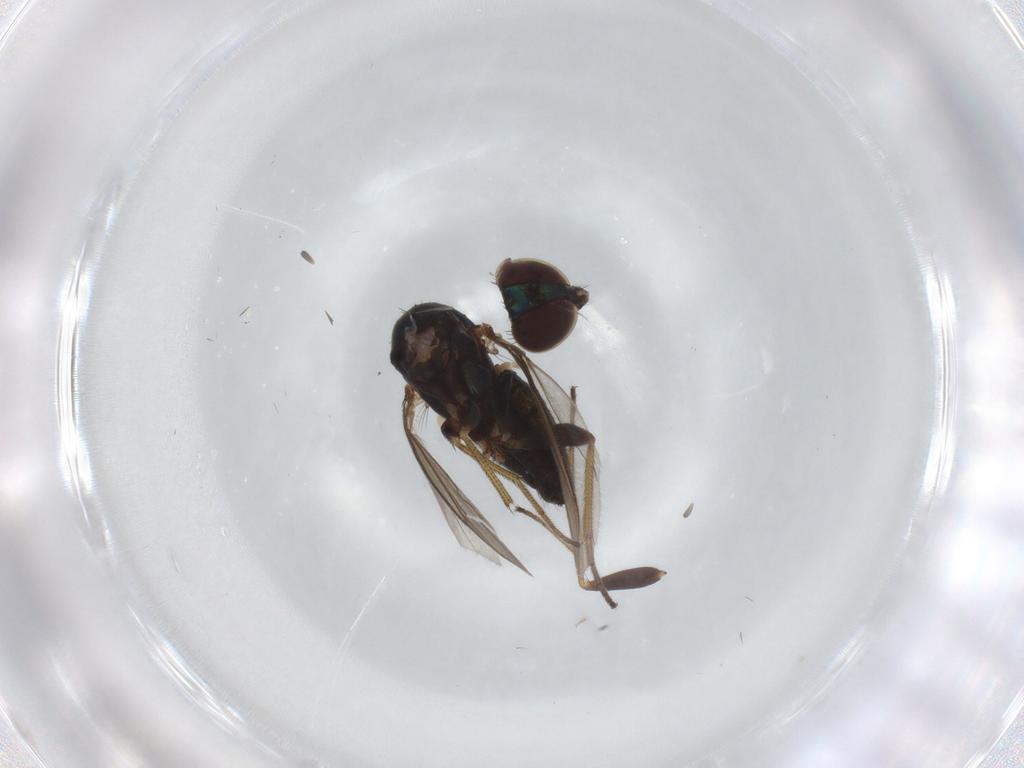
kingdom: Animalia
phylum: Arthropoda
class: Insecta
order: Diptera
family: Dolichopodidae
